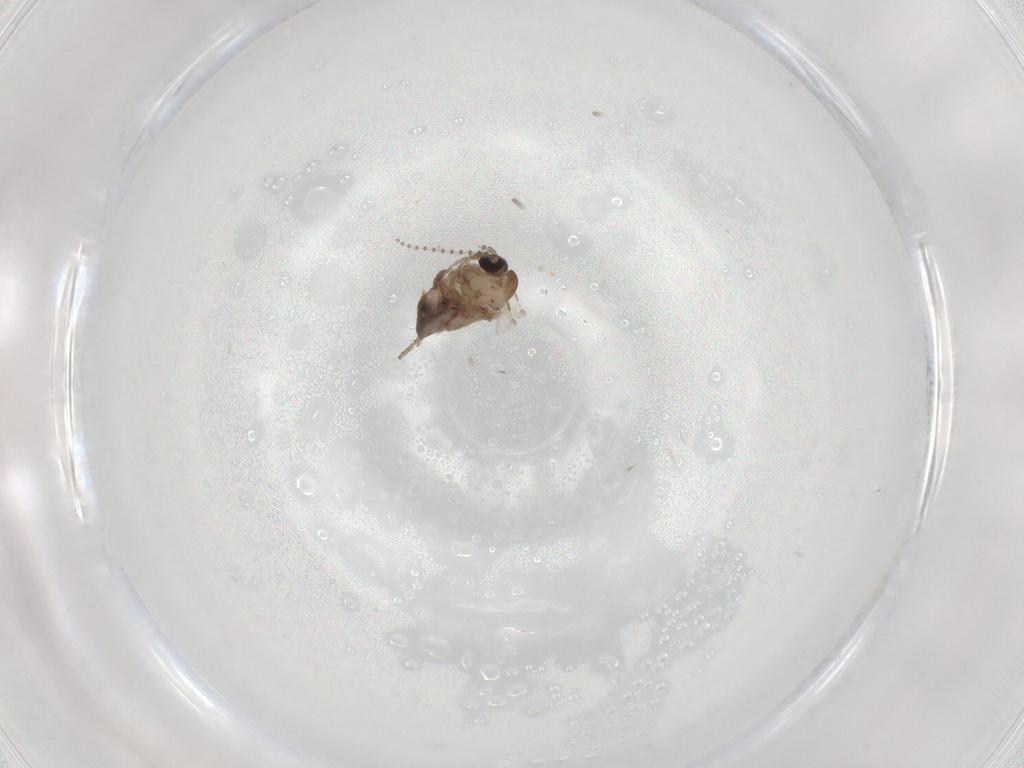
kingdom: Animalia
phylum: Arthropoda
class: Insecta
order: Diptera
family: Psychodidae
